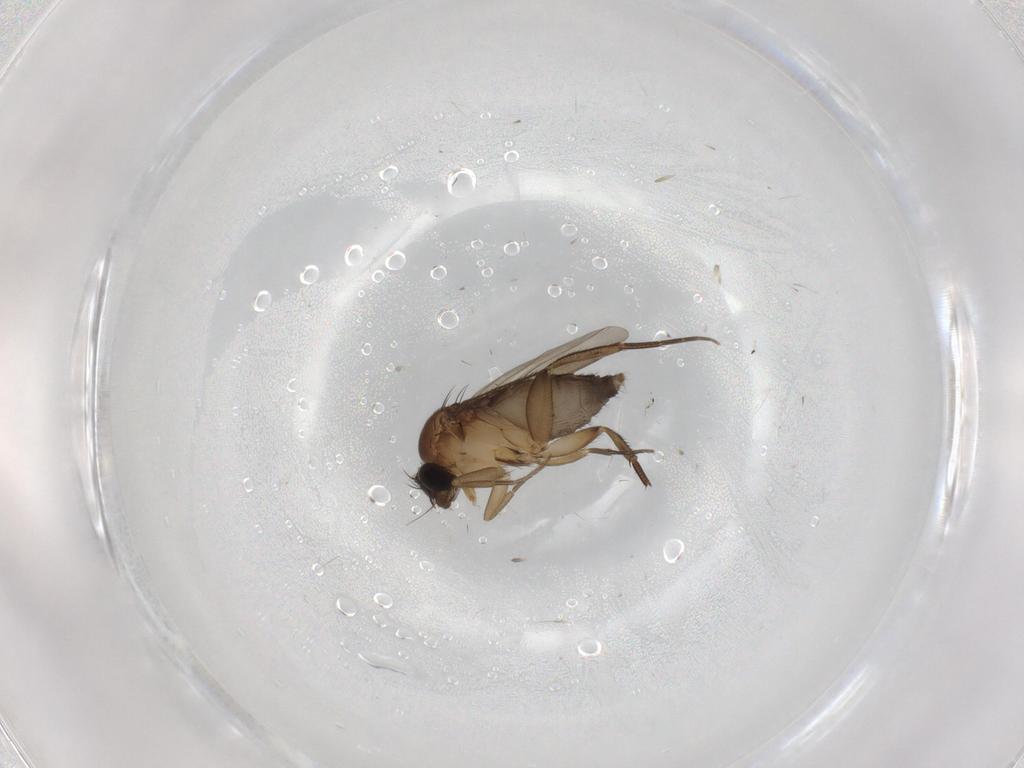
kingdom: Animalia
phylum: Arthropoda
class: Insecta
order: Diptera
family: Phoridae
